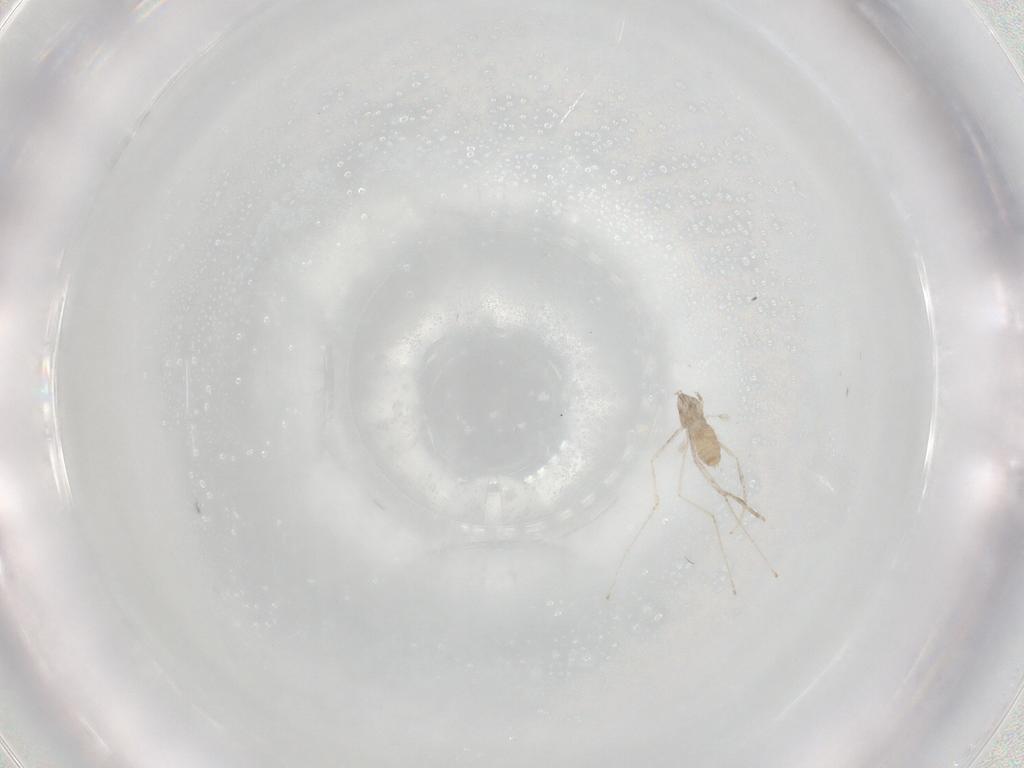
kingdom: Animalia
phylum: Arthropoda
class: Insecta
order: Diptera
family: Cecidomyiidae
